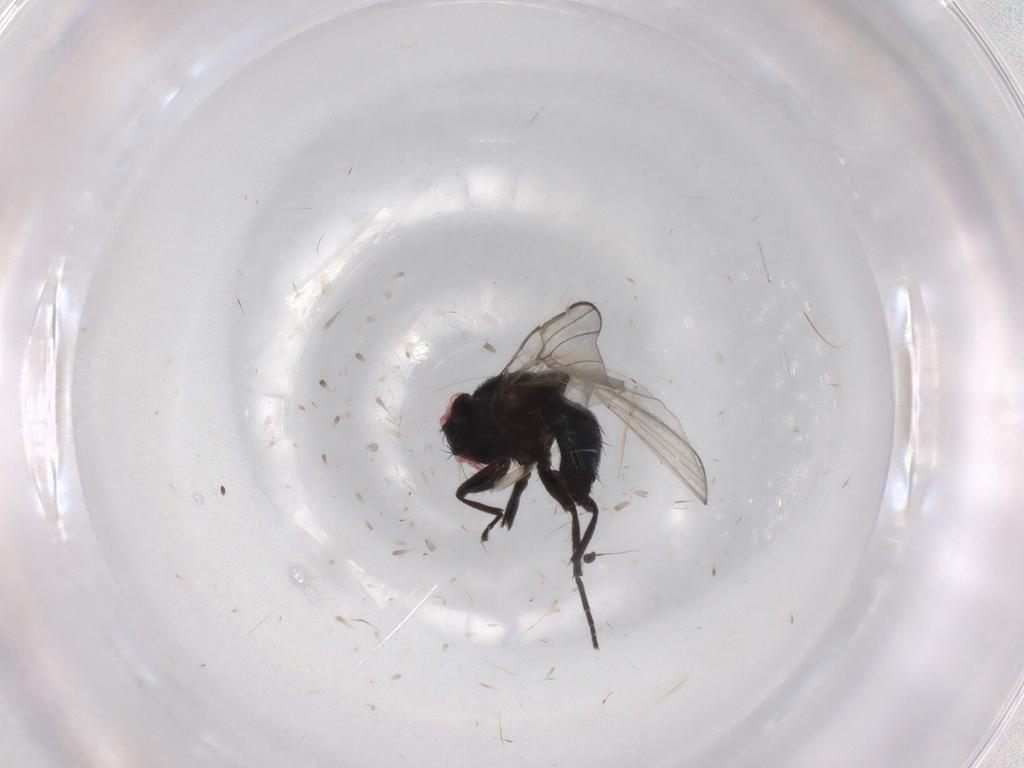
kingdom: Animalia
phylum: Arthropoda
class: Insecta
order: Diptera
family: Agromyzidae
